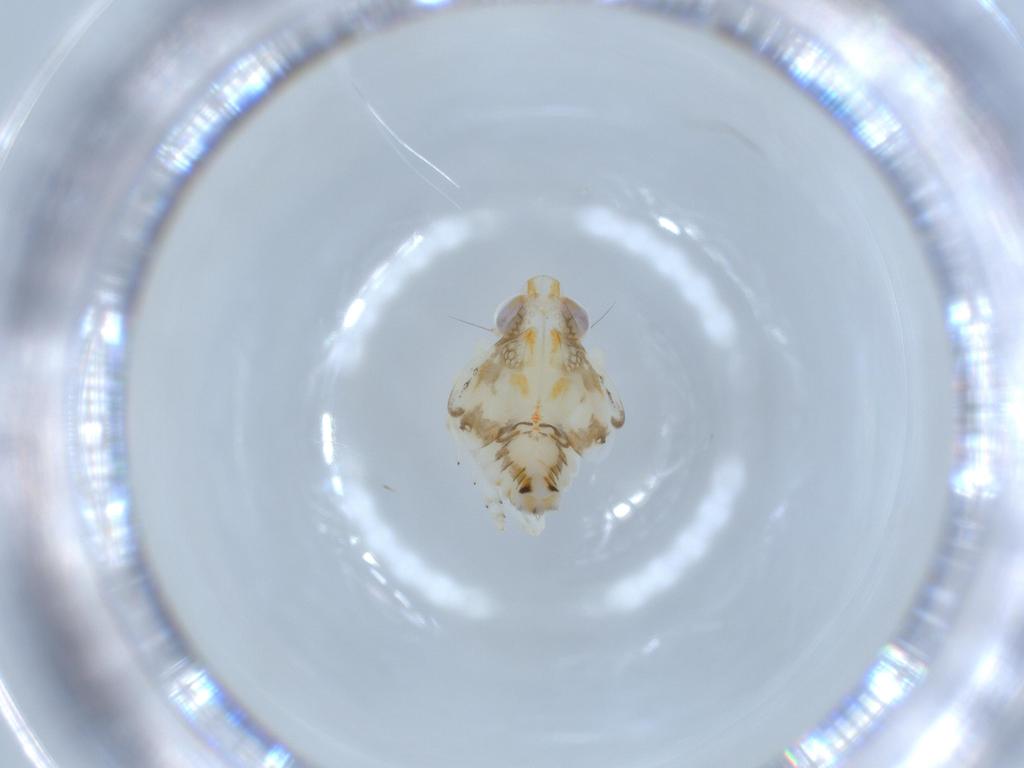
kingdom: Animalia
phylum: Arthropoda
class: Insecta
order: Hemiptera
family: Nogodinidae
